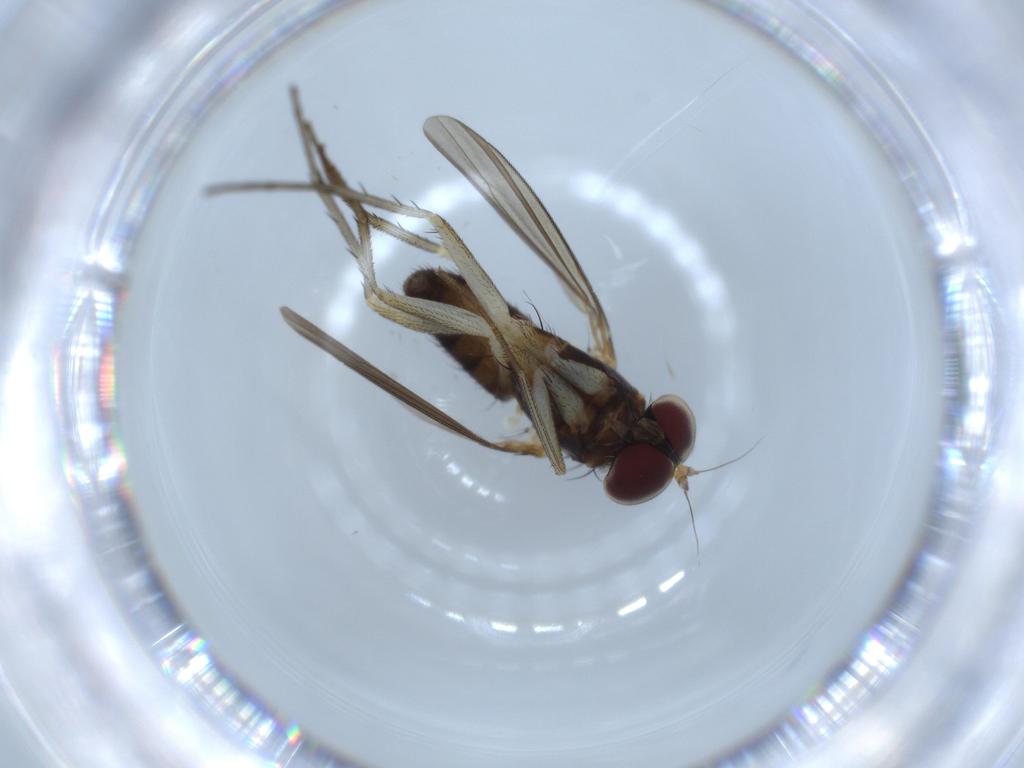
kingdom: Animalia
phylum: Arthropoda
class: Insecta
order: Diptera
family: Dolichopodidae
